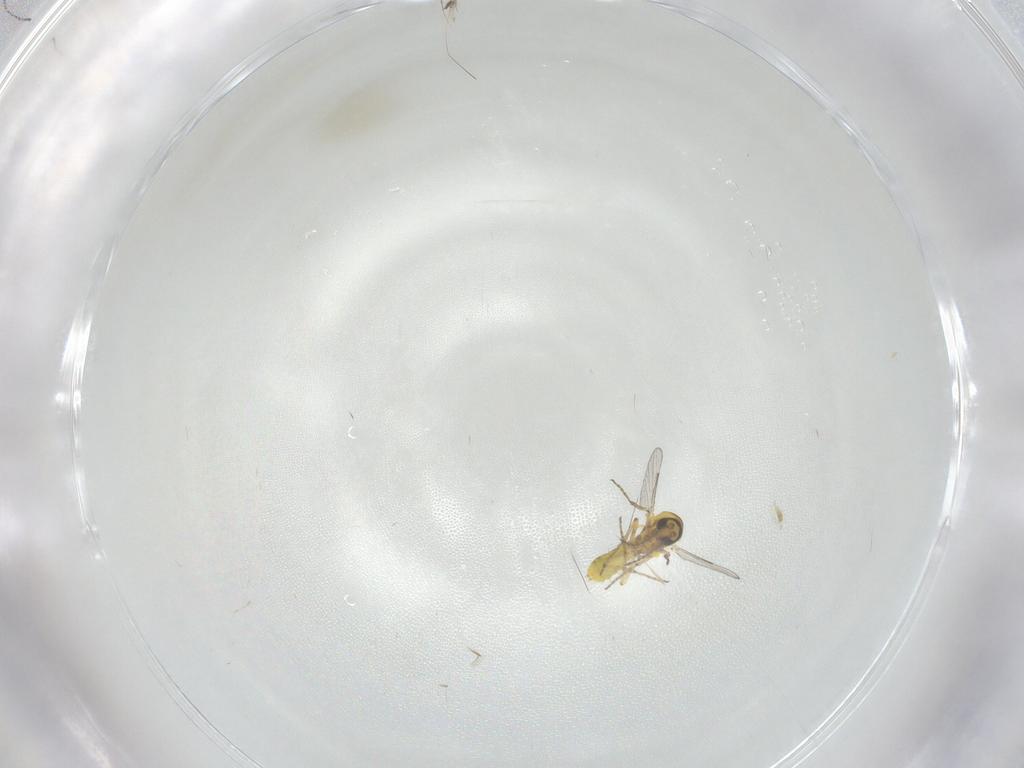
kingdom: Animalia
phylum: Arthropoda
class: Insecta
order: Diptera
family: Ceratopogonidae
